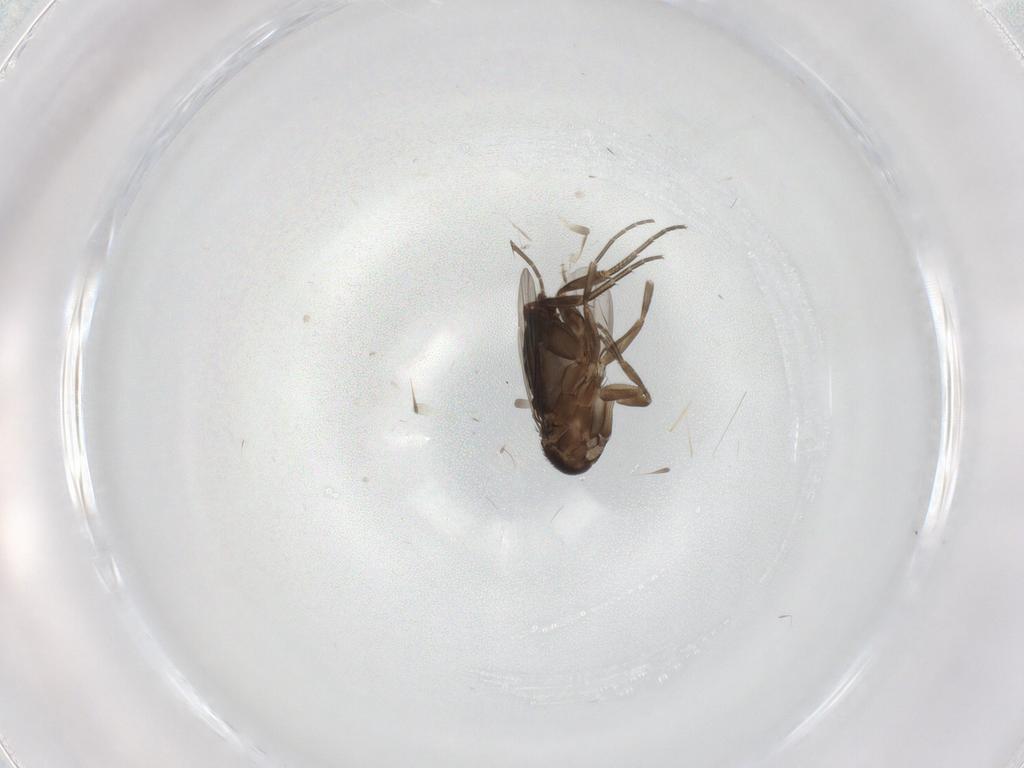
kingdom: Animalia
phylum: Arthropoda
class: Insecta
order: Diptera
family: Phoridae
